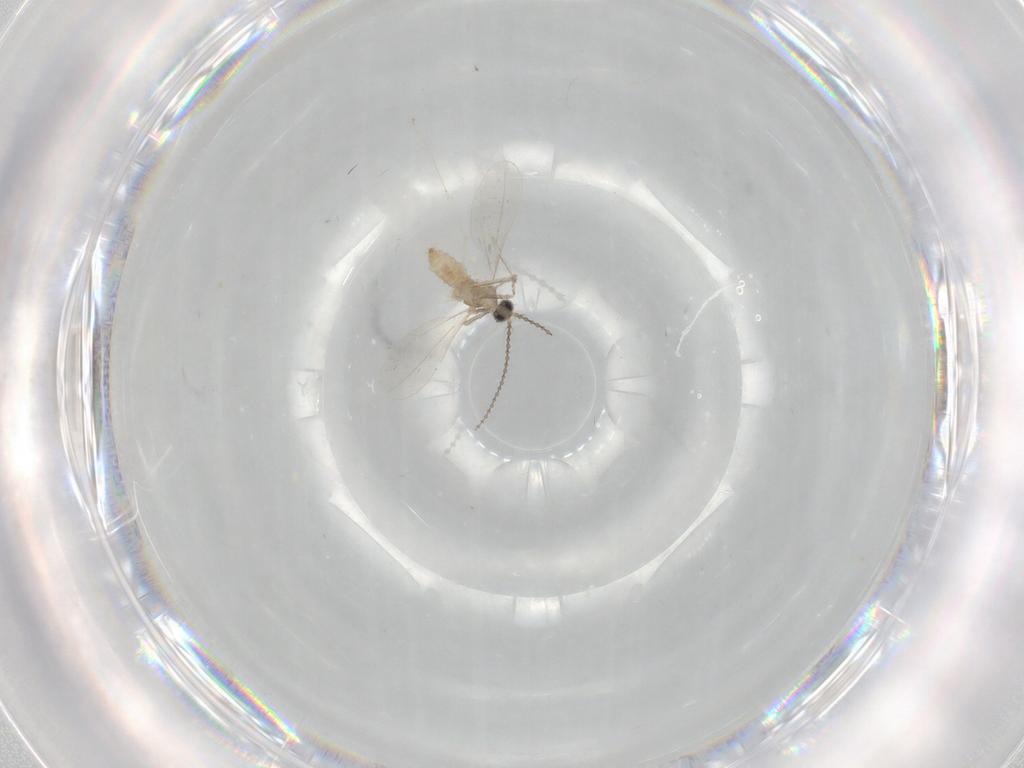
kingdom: Animalia
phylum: Arthropoda
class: Insecta
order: Diptera
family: Cecidomyiidae
